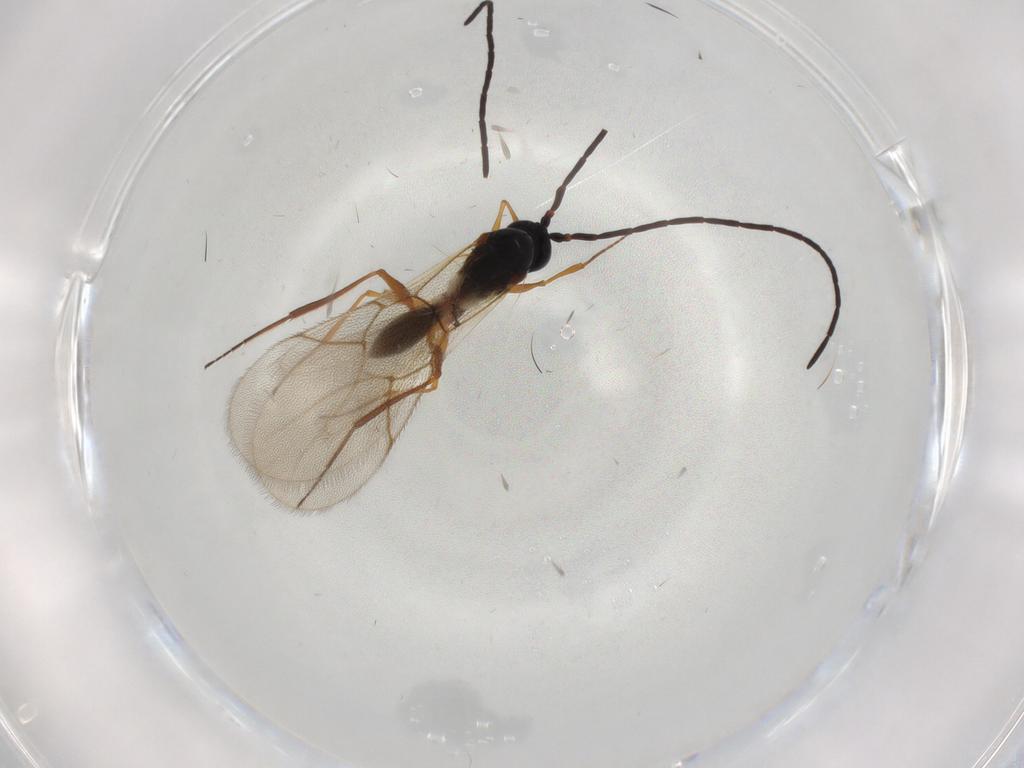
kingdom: Animalia
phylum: Arthropoda
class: Insecta
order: Hymenoptera
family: Figitidae
